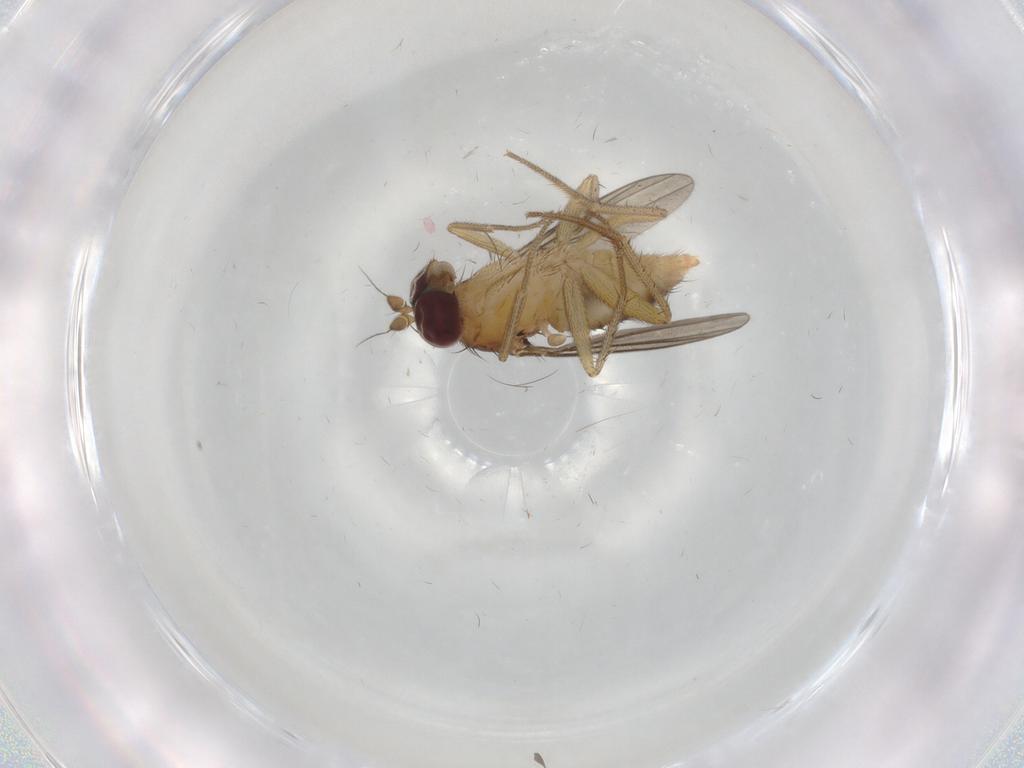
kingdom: Animalia
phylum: Arthropoda
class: Insecta
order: Diptera
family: Dolichopodidae
